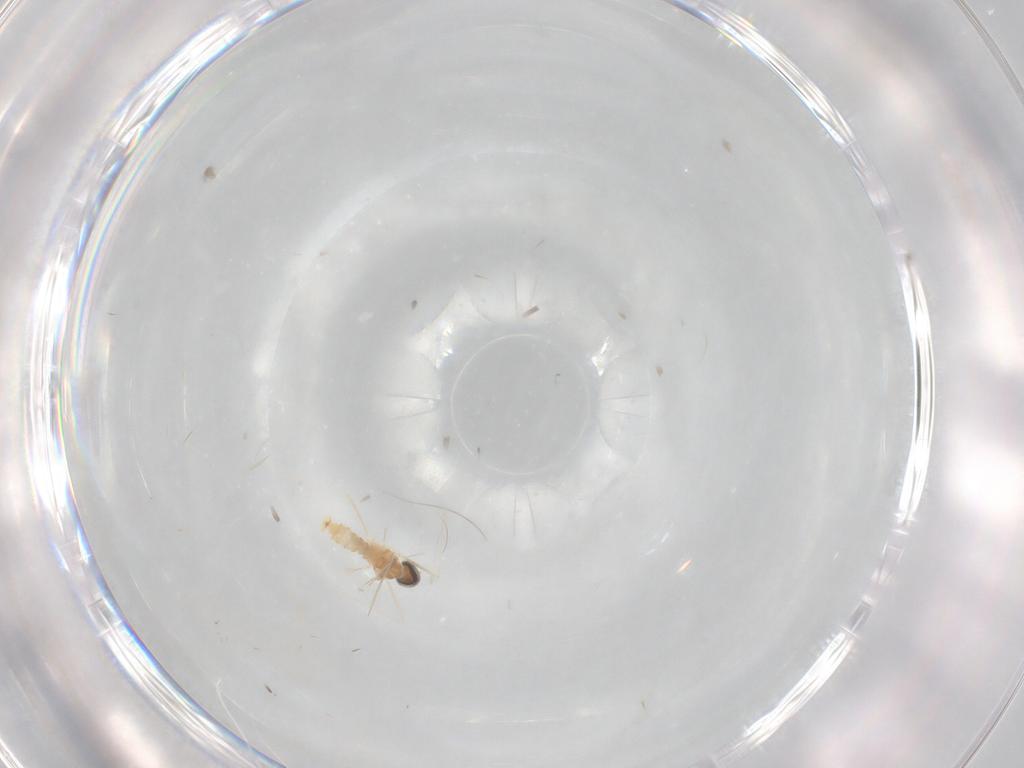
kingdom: Animalia
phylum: Arthropoda
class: Insecta
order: Diptera
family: Cecidomyiidae
